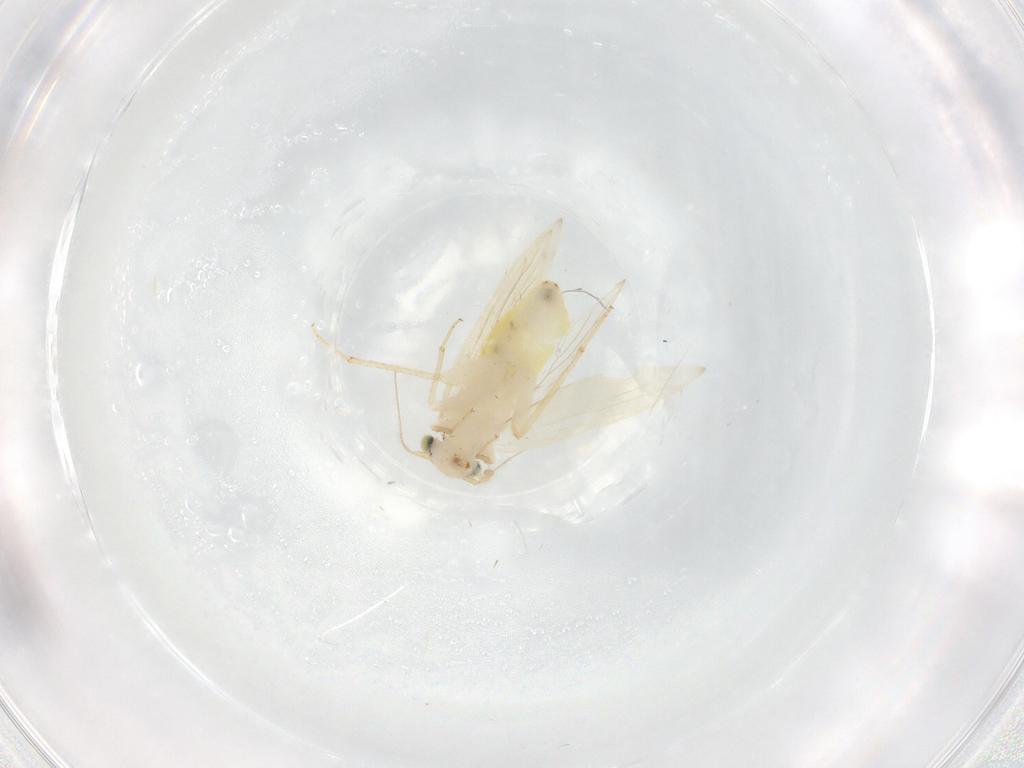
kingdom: Animalia
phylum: Arthropoda
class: Insecta
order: Psocodea
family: Lepidopsocidae
